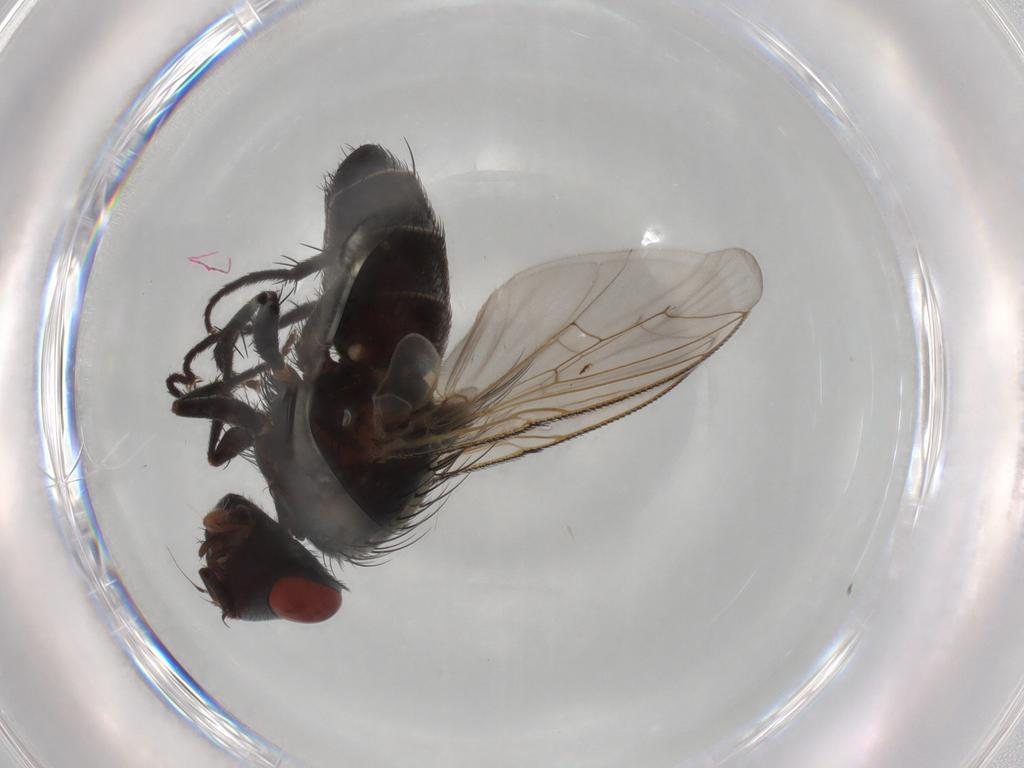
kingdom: Animalia
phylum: Arthropoda
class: Insecta
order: Diptera
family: Sarcophagidae
